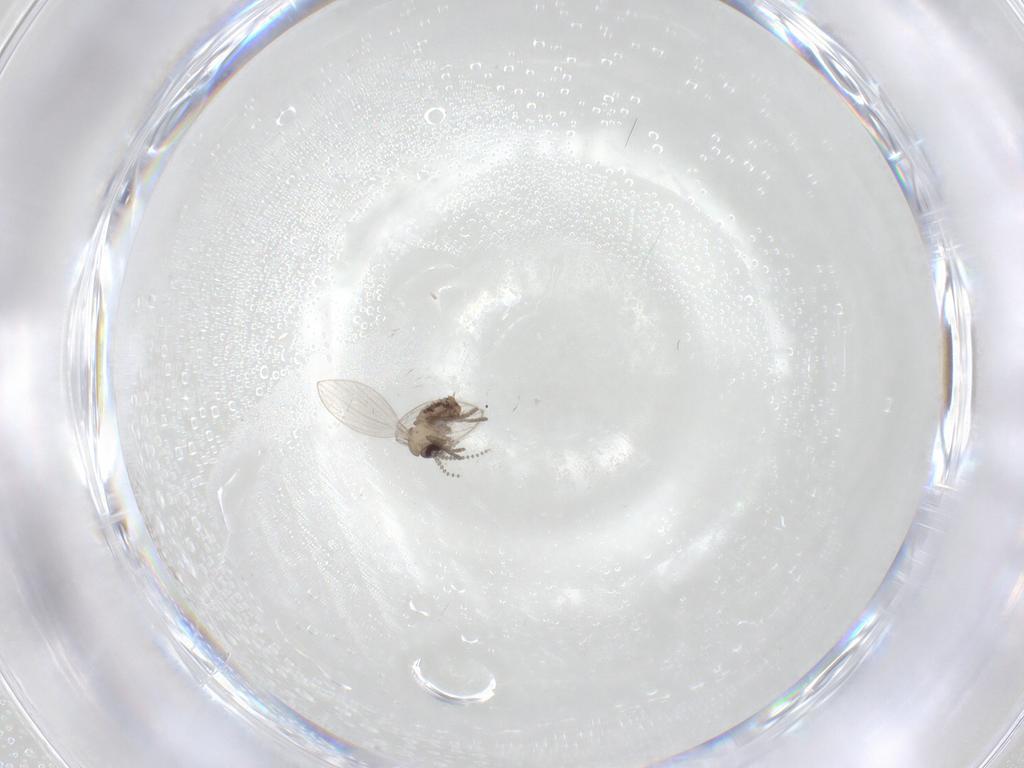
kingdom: Animalia
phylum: Arthropoda
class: Insecta
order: Diptera
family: Psychodidae
